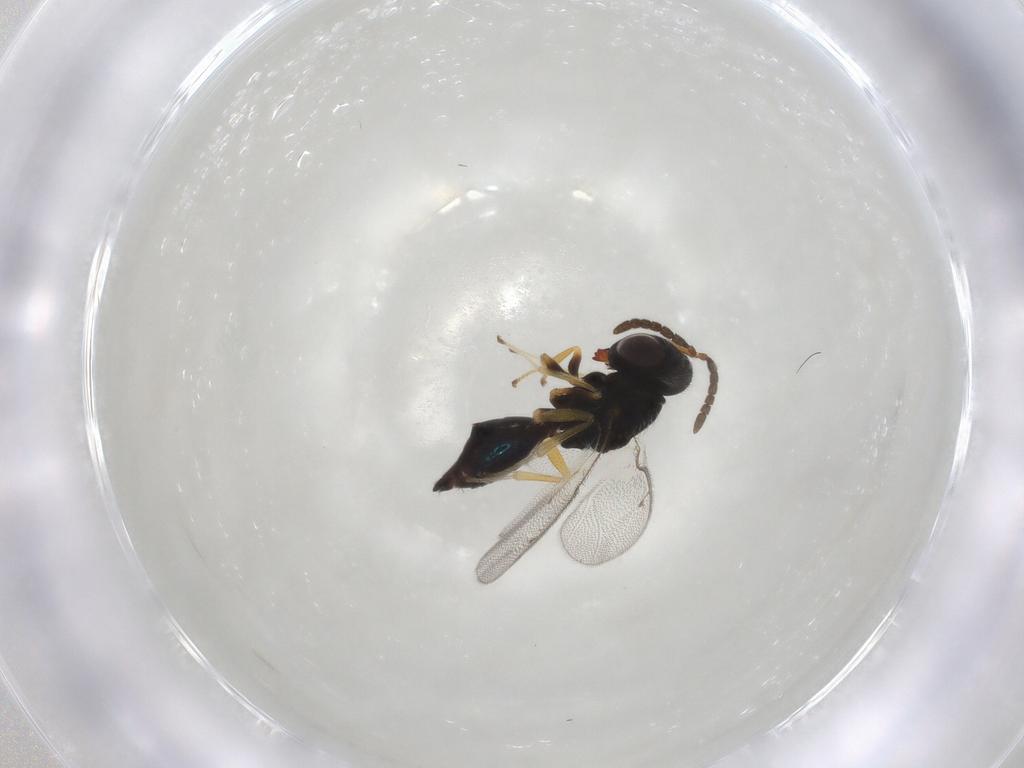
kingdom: Animalia
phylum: Arthropoda
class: Insecta
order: Hymenoptera
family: Pteromalidae
